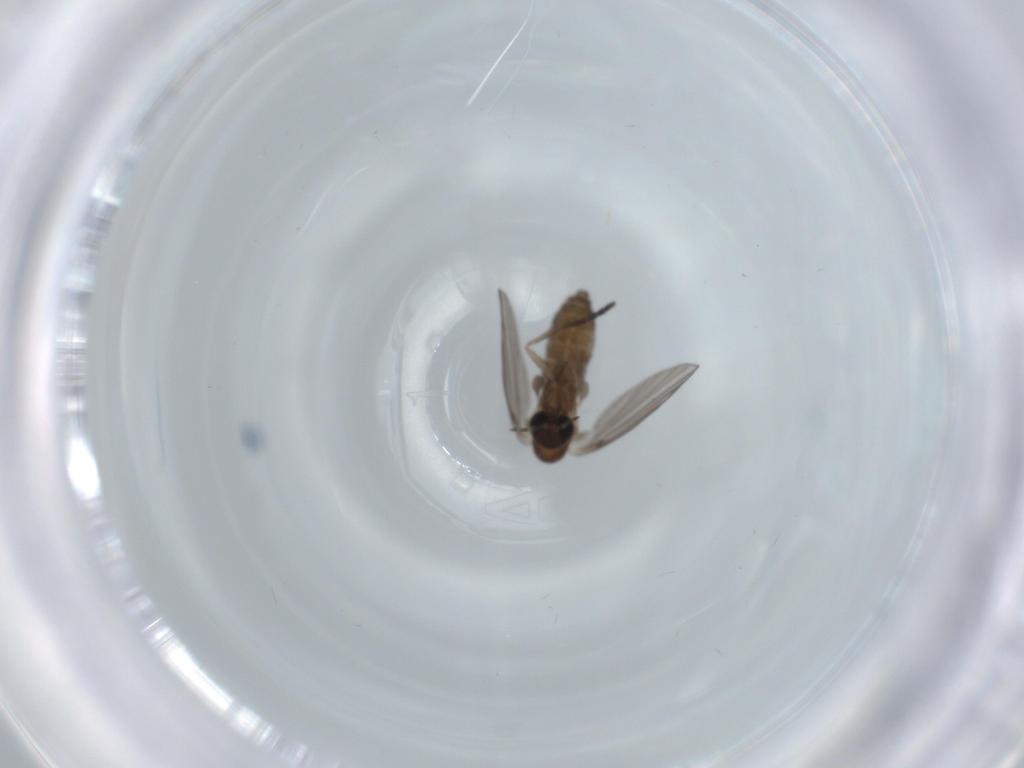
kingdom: Animalia
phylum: Arthropoda
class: Insecta
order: Diptera
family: Psychodidae
